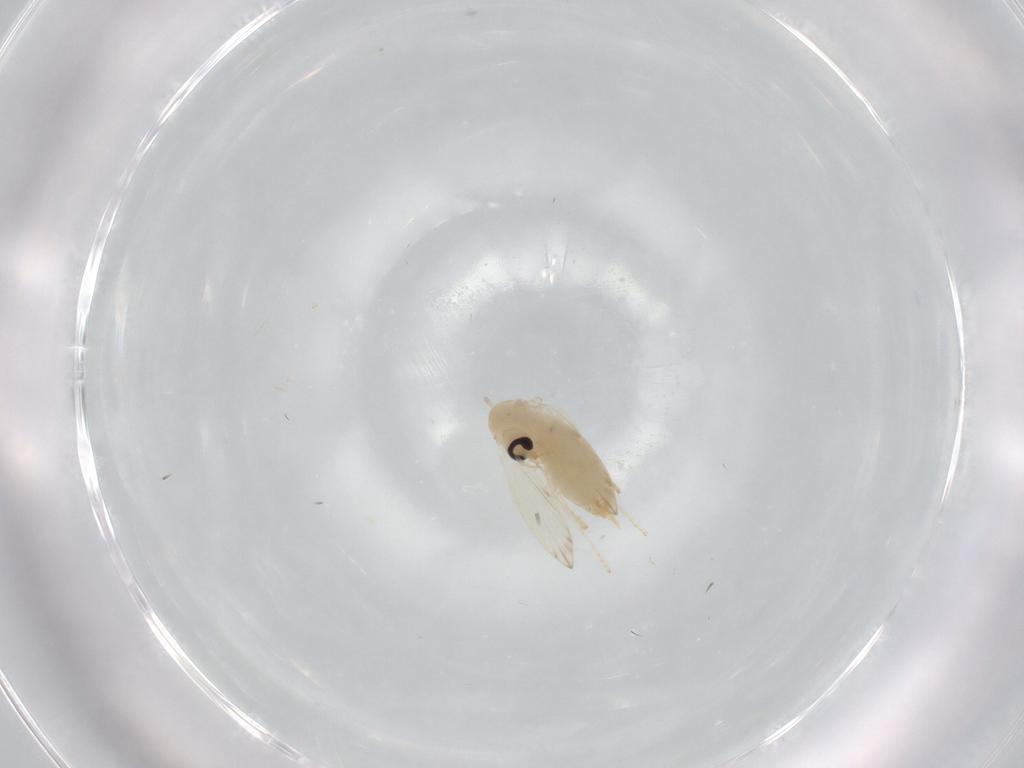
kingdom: Animalia
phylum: Arthropoda
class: Insecta
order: Diptera
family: Psychodidae
